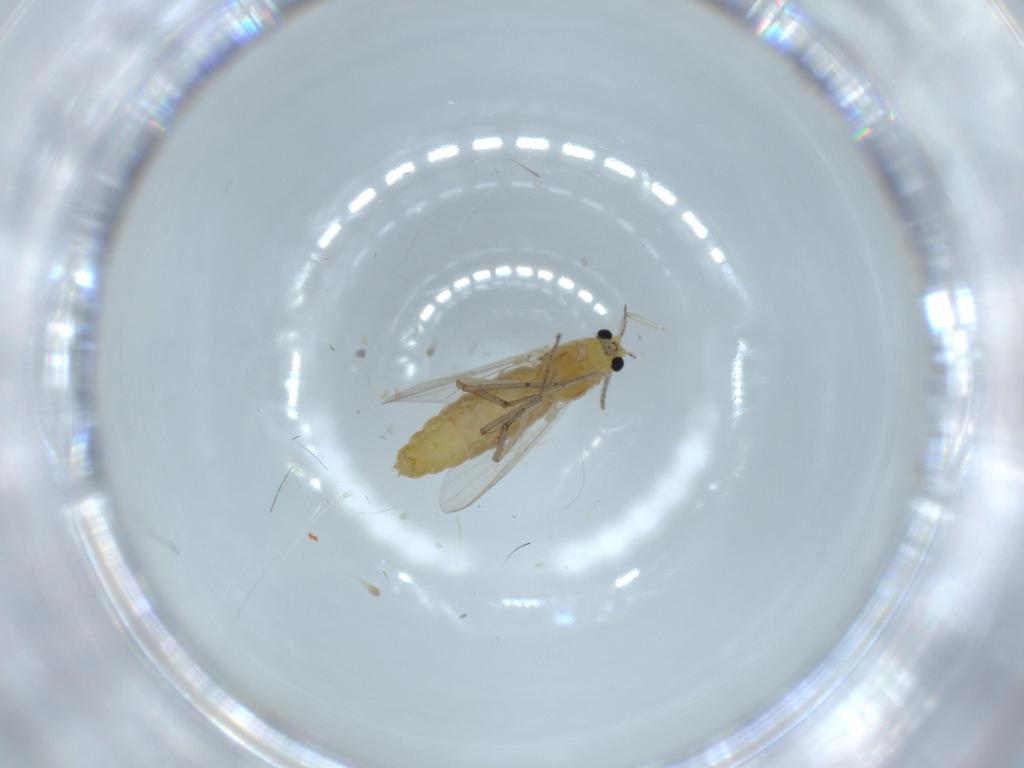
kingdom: Animalia
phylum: Arthropoda
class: Insecta
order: Diptera
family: Chironomidae
